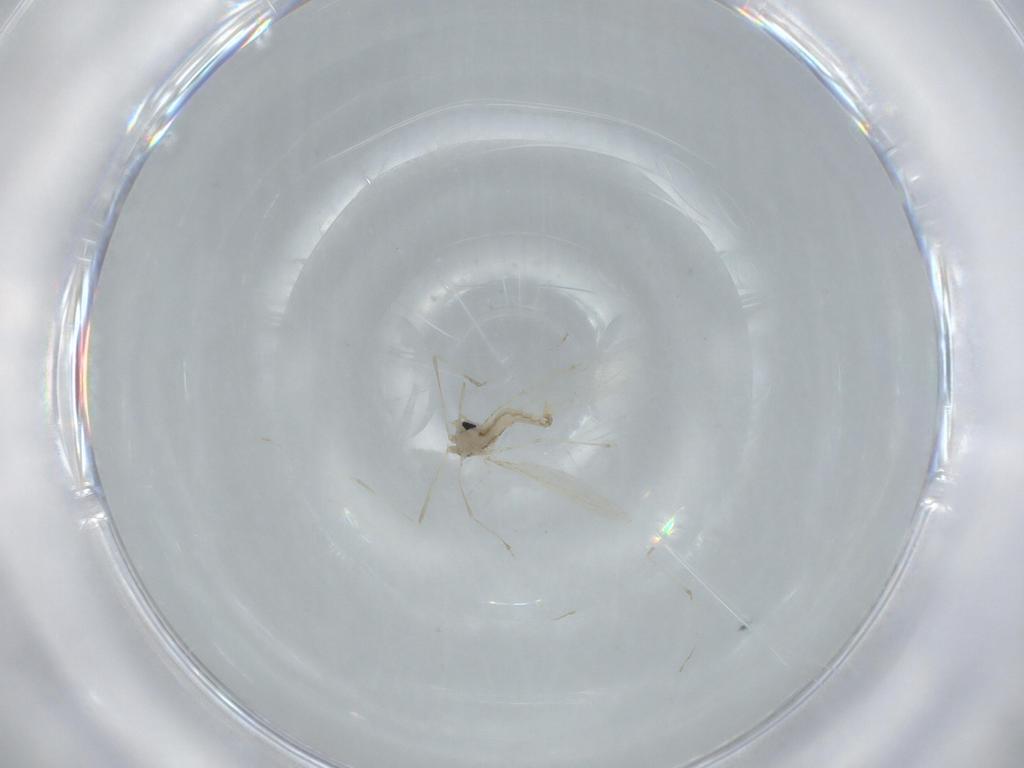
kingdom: Animalia
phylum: Arthropoda
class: Insecta
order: Diptera
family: Cecidomyiidae
